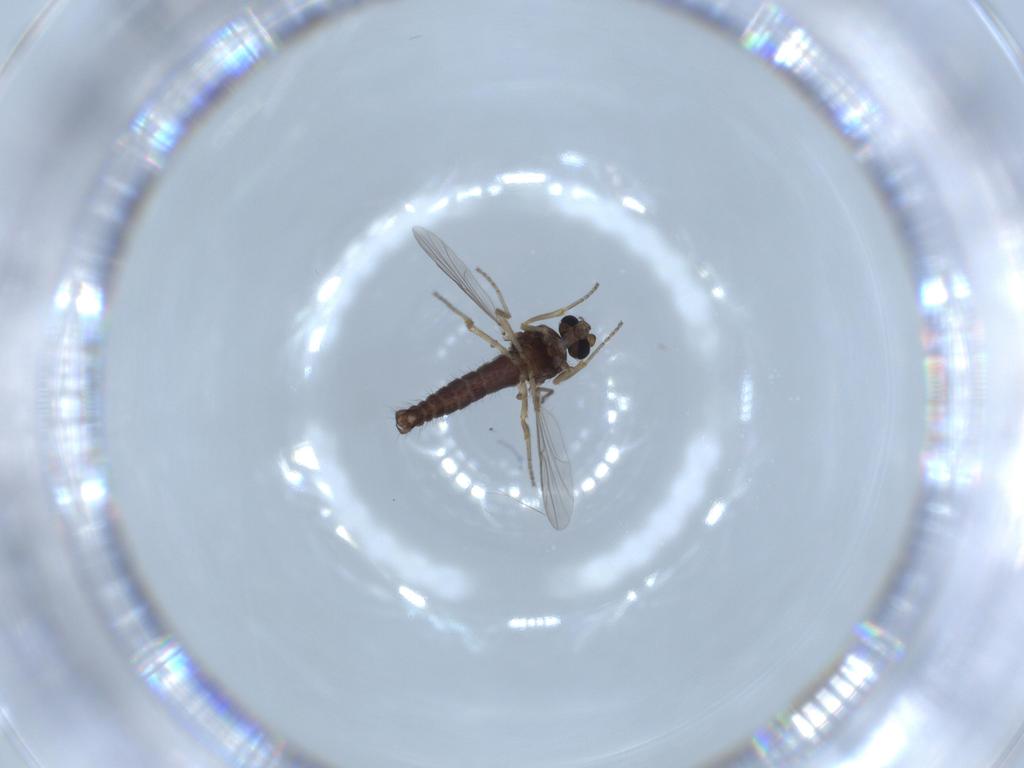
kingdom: Animalia
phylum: Arthropoda
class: Insecta
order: Diptera
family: Ceratopogonidae
